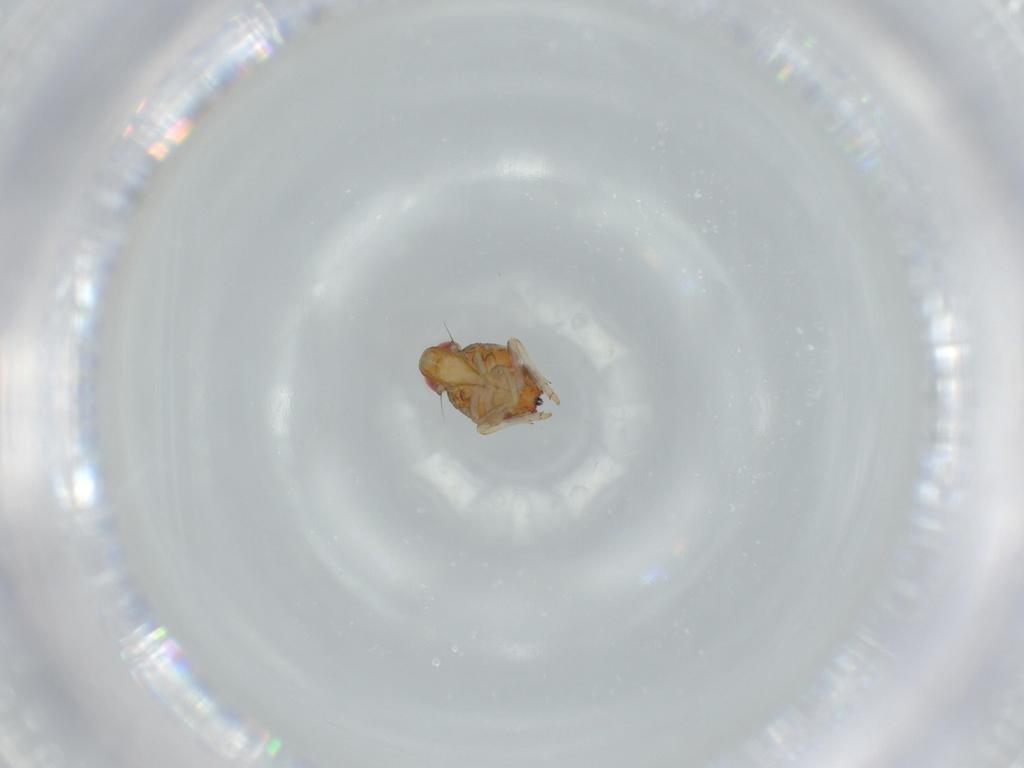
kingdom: Animalia
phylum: Arthropoda
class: Insecta
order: Hemiptera
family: Issidae
